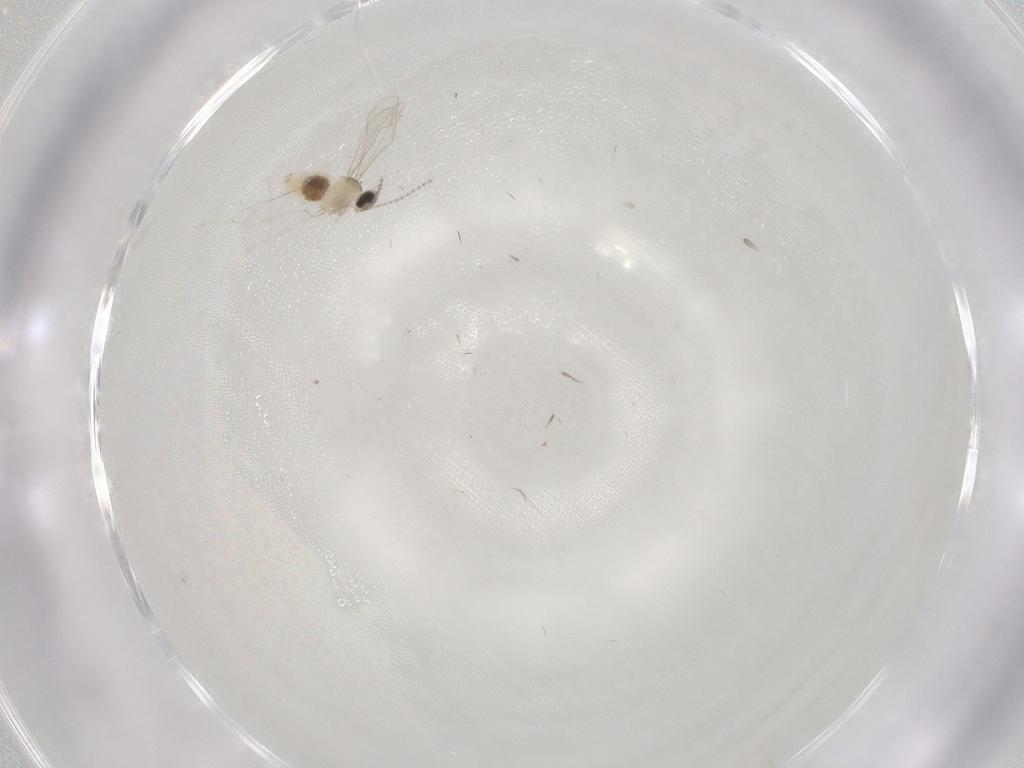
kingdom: Animalia
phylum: Arthropoda
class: Insecta
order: Diptera
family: Cecidomyiidae
